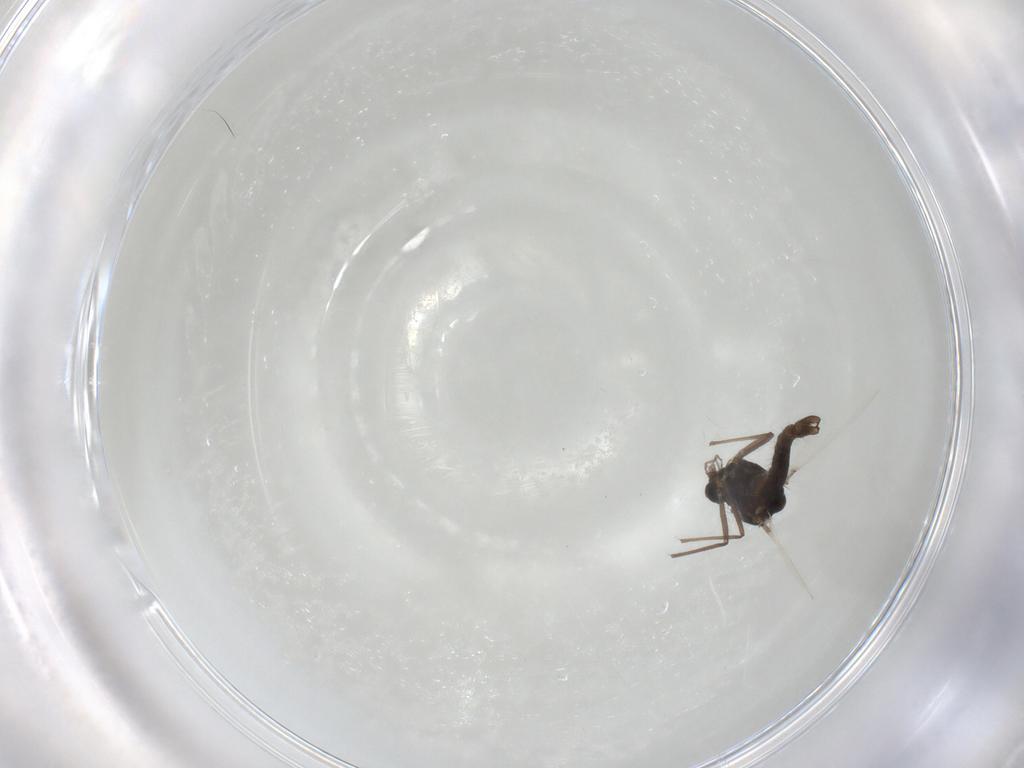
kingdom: Animalia
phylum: Arthropoda
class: Insecta
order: Diptera
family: Chironomidae
